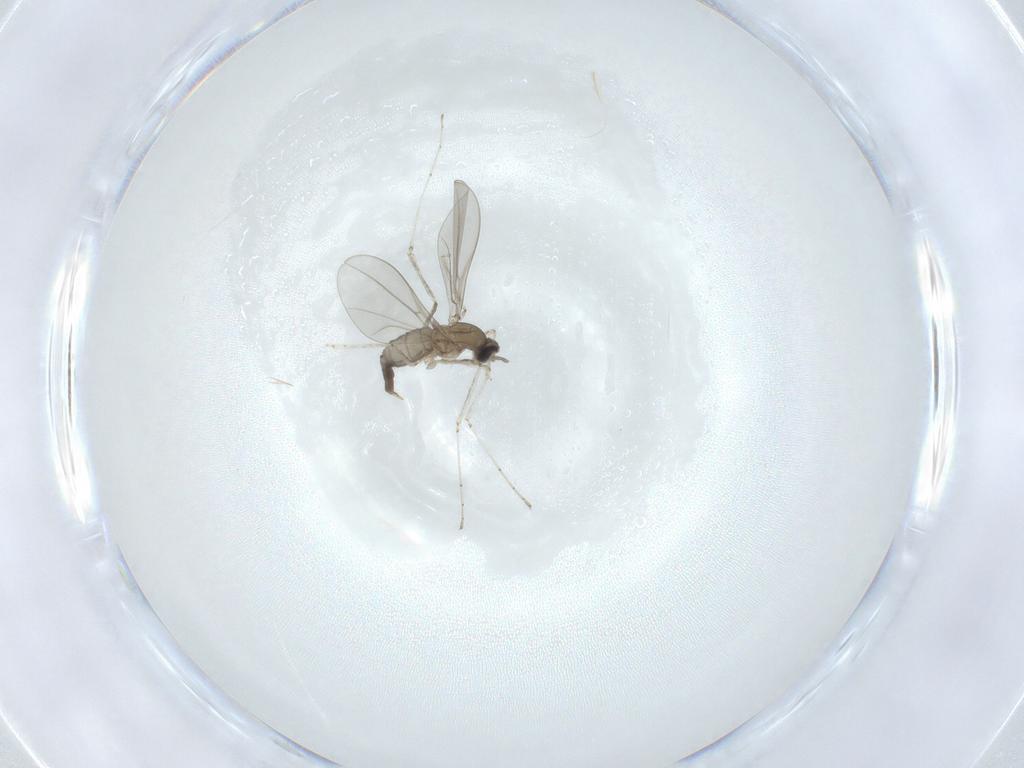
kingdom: Animalia
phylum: Arthropoda
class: Insecta
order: Diptera
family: Cecidomyiidae
